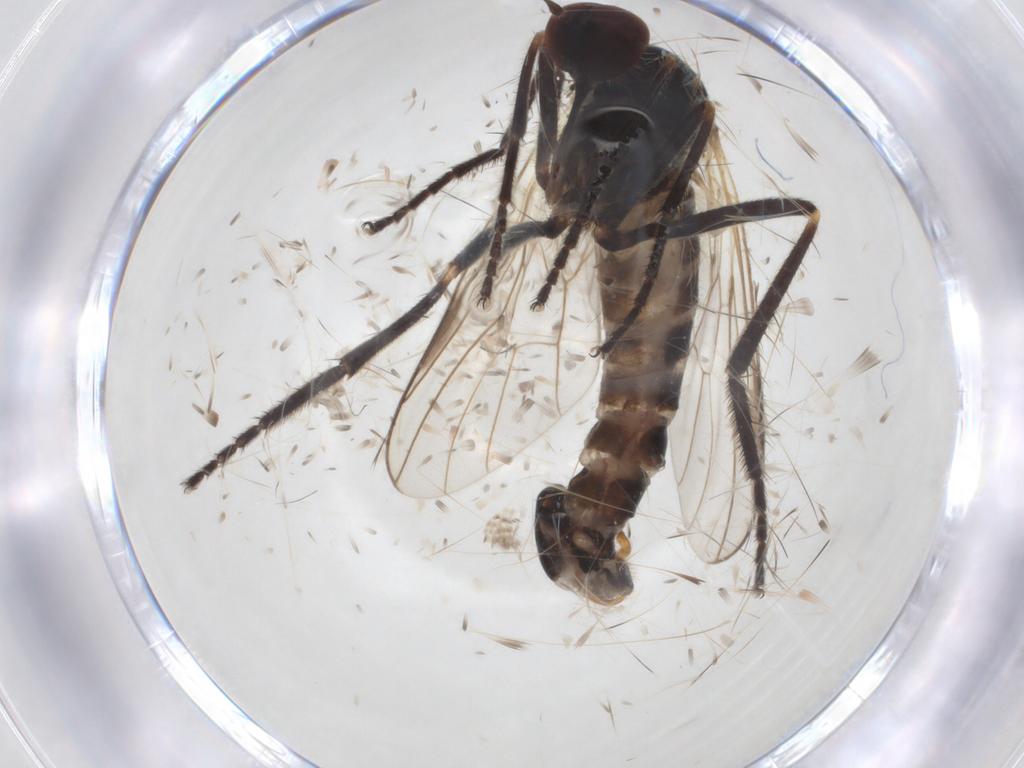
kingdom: Animalia
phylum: Arthropoda
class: Insecta
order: Diptera
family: Empididae
